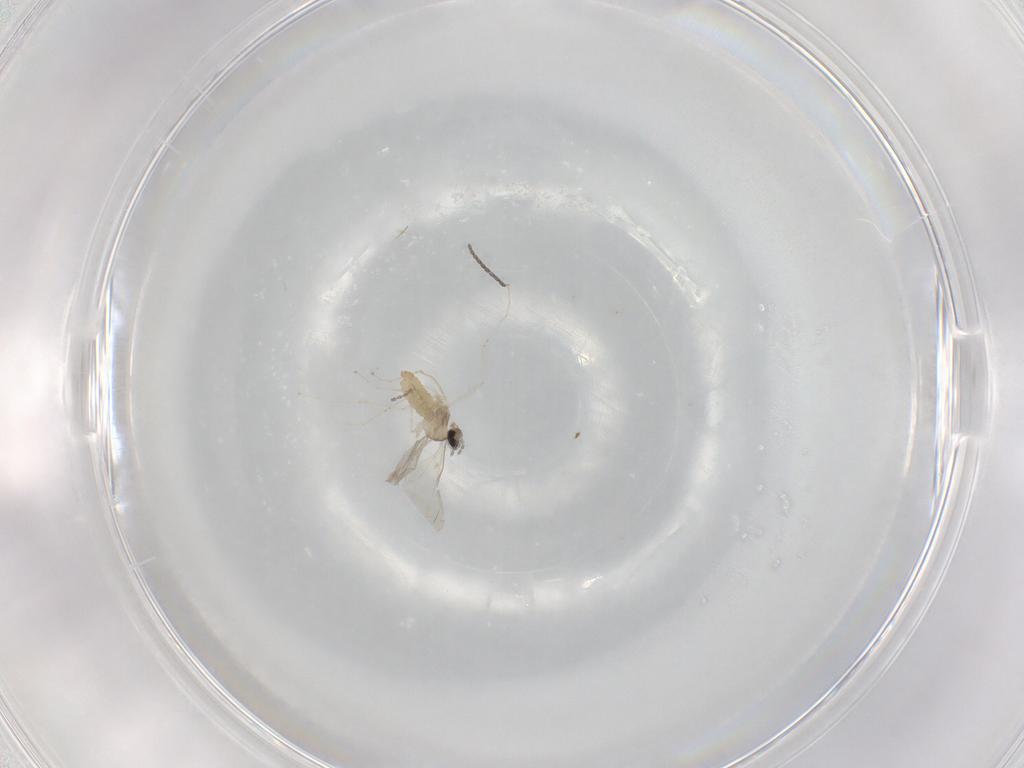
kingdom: Animalia
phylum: Arthropoda
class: Insecta
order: Diptera
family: Cecidomyiidae
